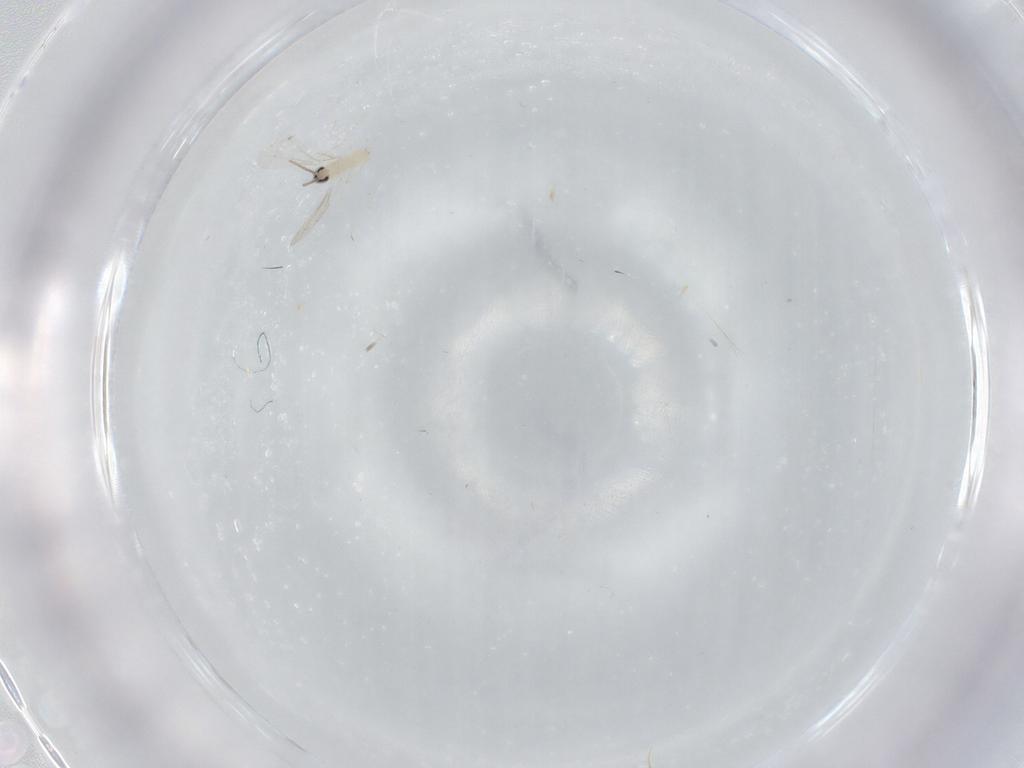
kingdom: Animalia
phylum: Arthropoda
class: Insecta
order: Diptera
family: Cecidomyiidae
